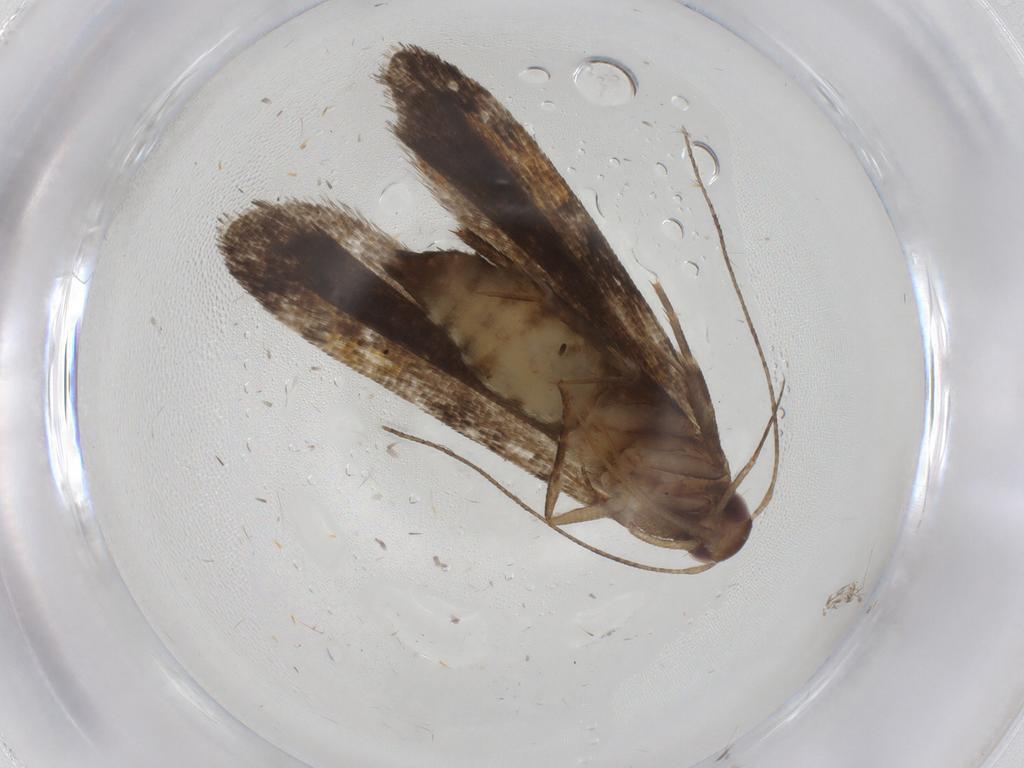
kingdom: Animalia
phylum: Arthropoda
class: Insecta
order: Lepidoptera
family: Gelechiidae
